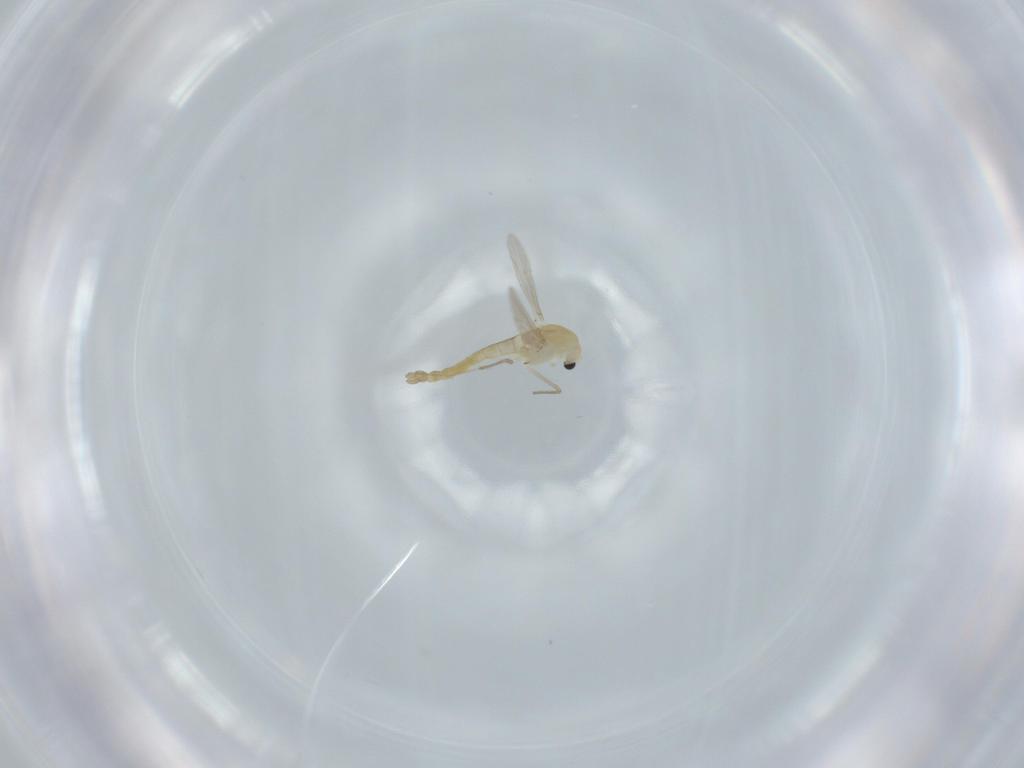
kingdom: Animalia
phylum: Arthropoda
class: Insecta
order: Diptera
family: Chironomidae
